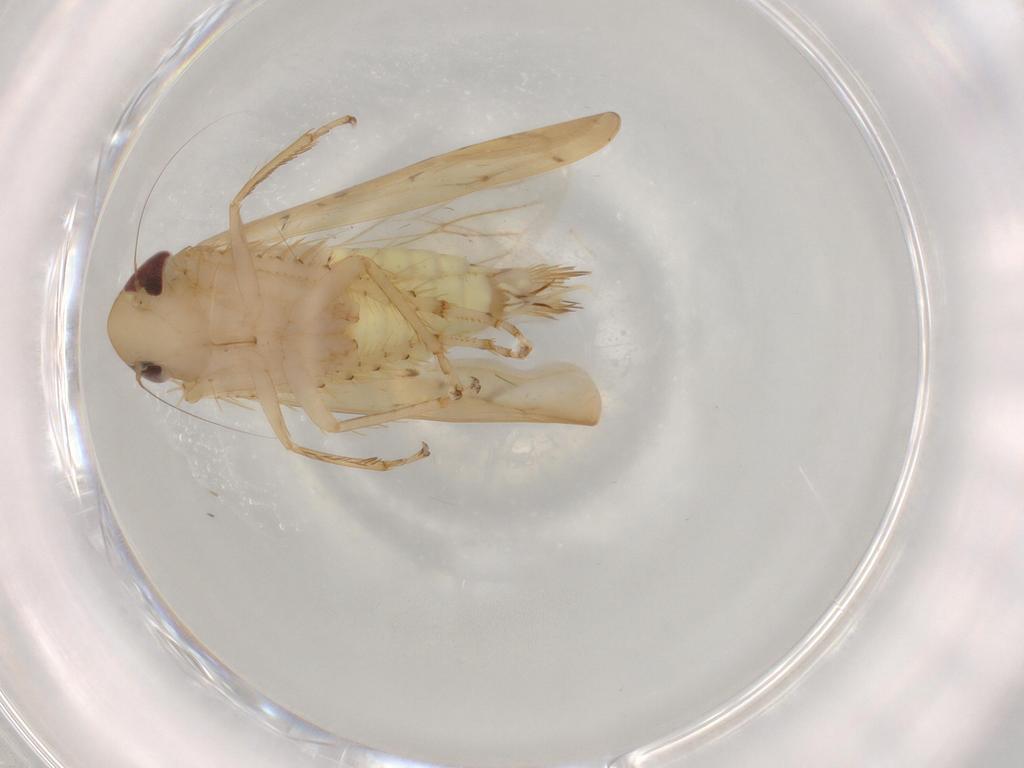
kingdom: Animalia
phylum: Arthropoda
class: Insecta
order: Hemiptera
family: Cicadellidae
